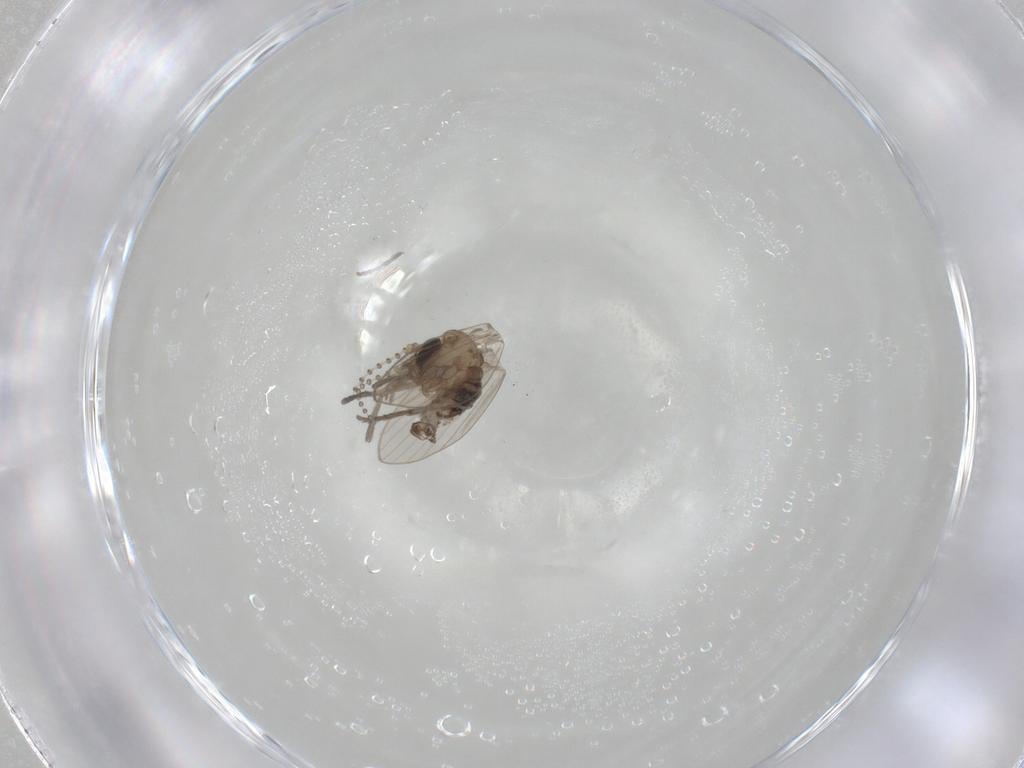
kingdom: Animalia
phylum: Arthropoda
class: Insecta
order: Diptera
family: Psychodidae
